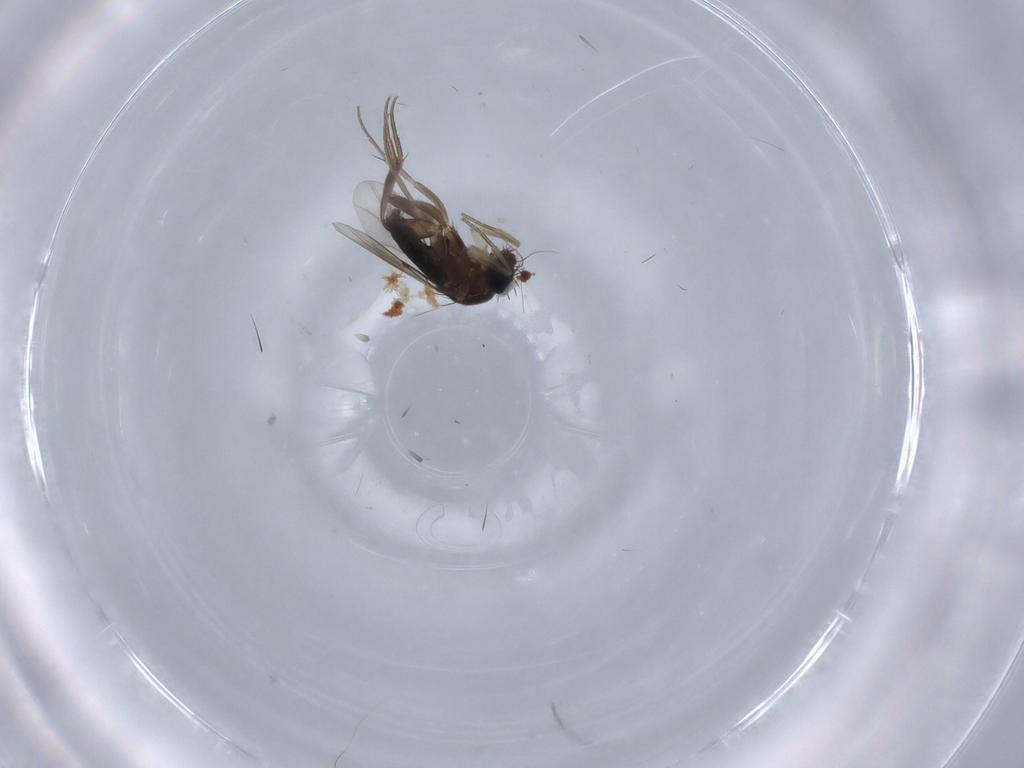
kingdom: Animalia
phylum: Arthropoda
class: Insecta
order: Diptera
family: Phoridae
